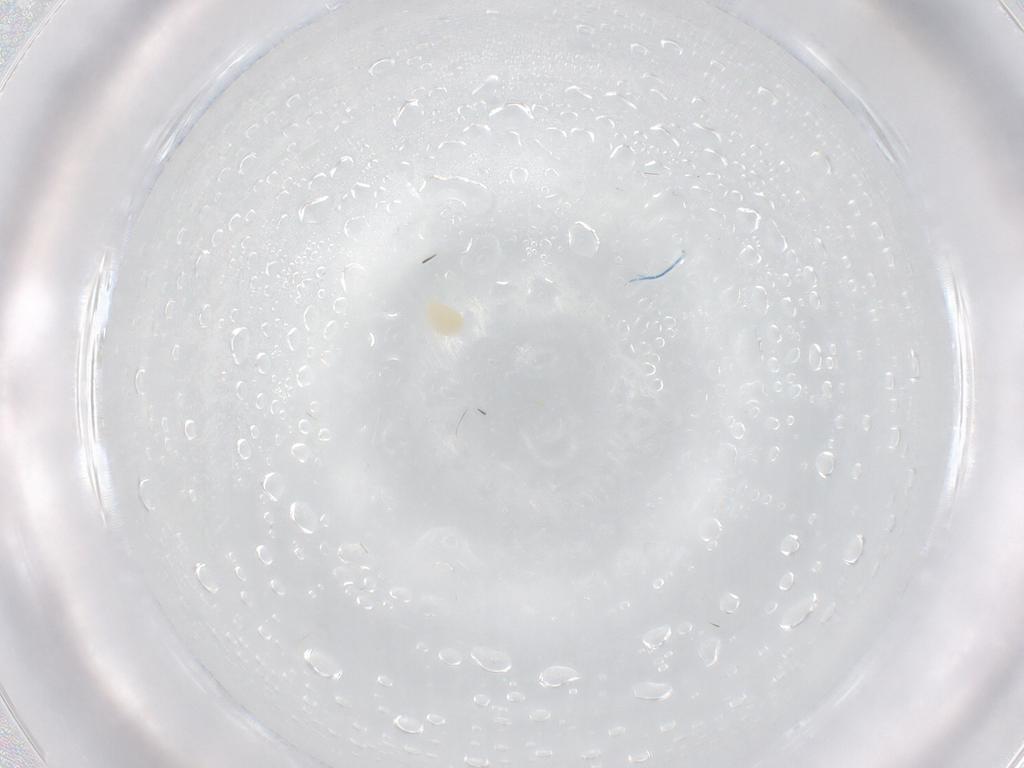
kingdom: Animalia
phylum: Arthropoda
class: Arachnida
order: Trombidiformes
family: Tetranychidae
